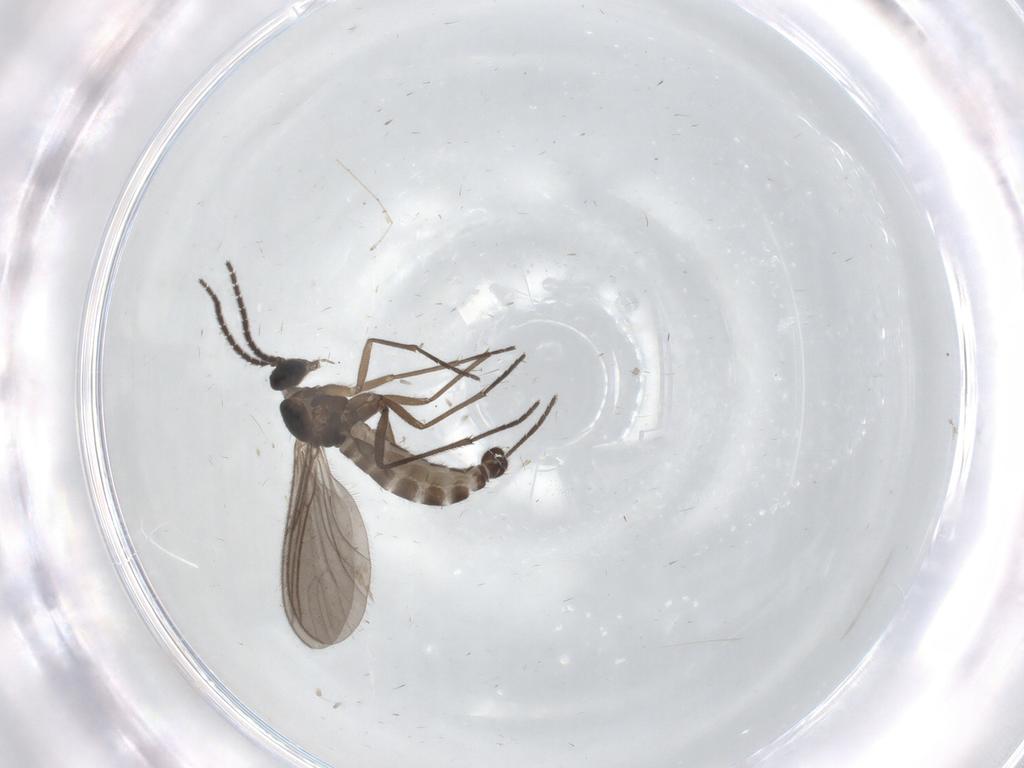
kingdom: Animalia
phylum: Arthropoda
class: Insecta
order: Diptera
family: Sciaridae
